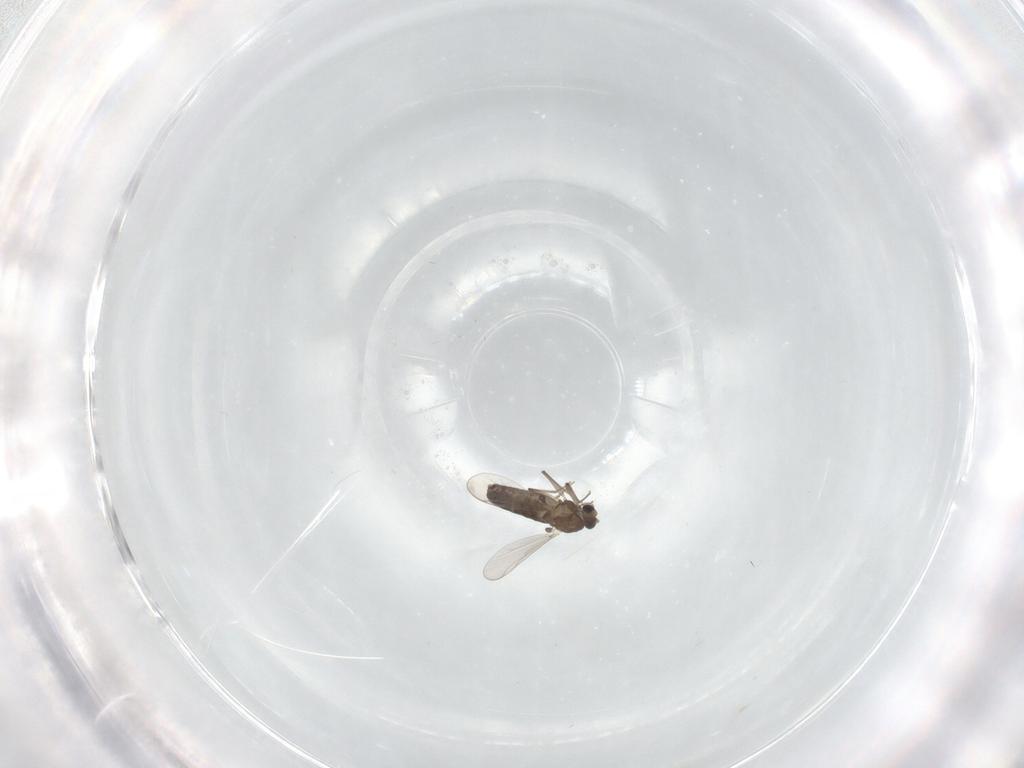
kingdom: Animalia
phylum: Arthropoda
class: Insecta
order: Diptera
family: Chironomidae
